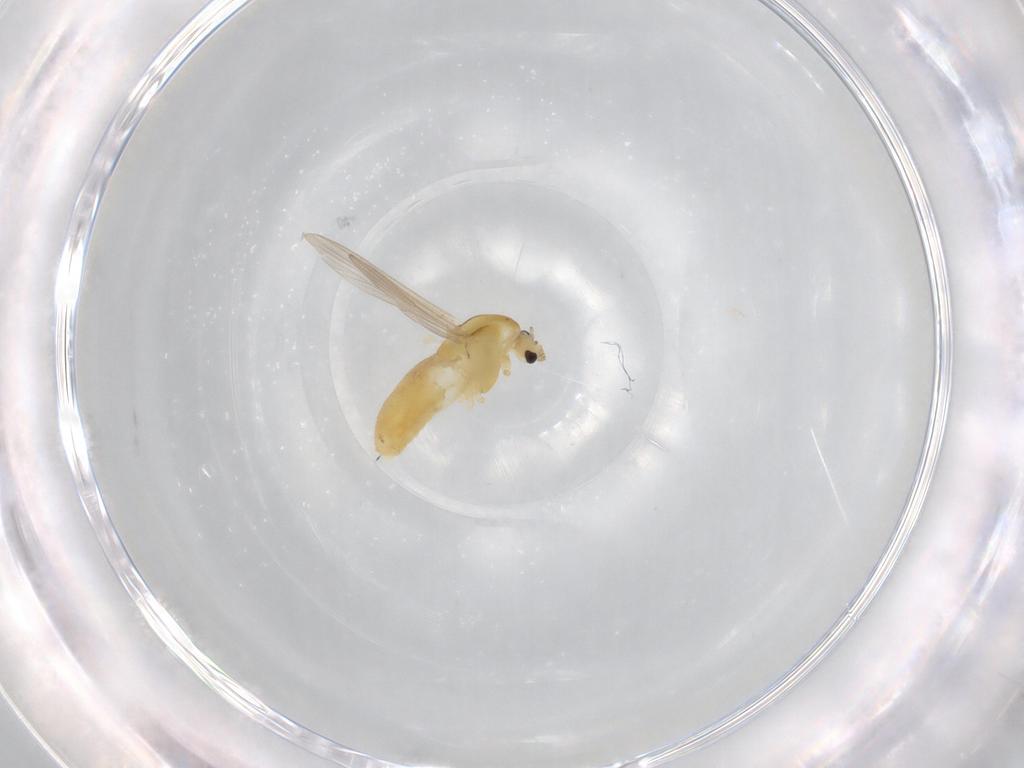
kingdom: Animalia
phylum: Arthropoda
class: Insecta
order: Diptera
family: Chironomidae
